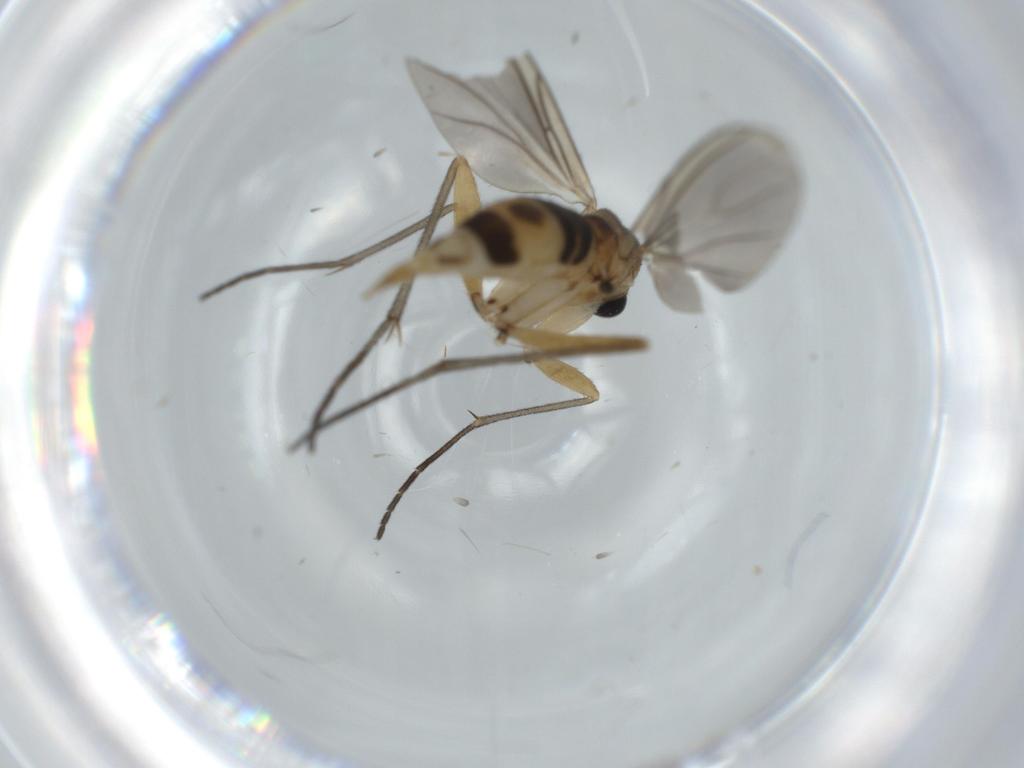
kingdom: Animalia
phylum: Arthropoda
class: Insecta
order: Diptera
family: Sciaridae
